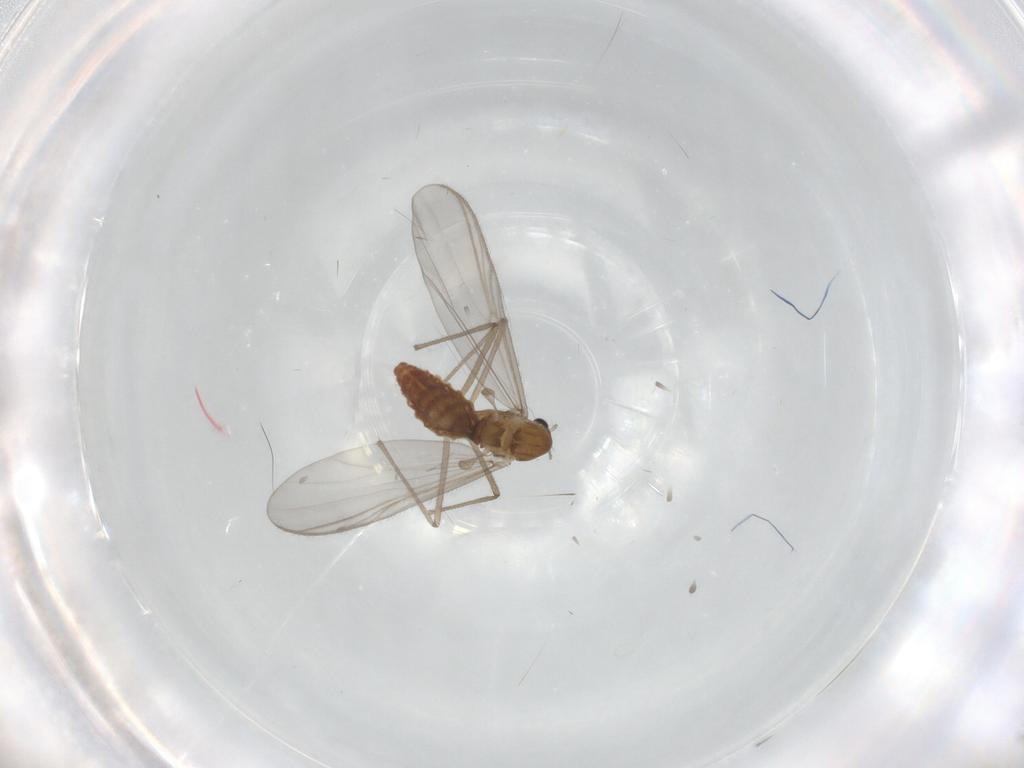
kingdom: Animalia
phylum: Arthropoda
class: Insecta
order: Diptera
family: Chironomidae
